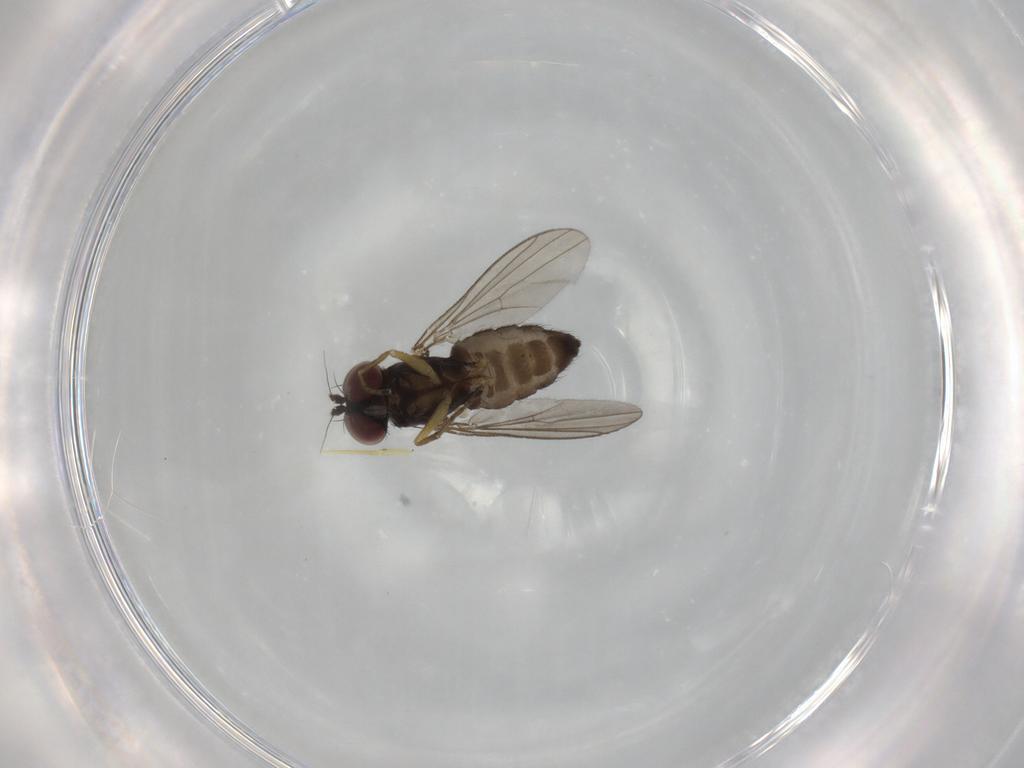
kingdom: Animalia
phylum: Arthropoda
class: Insecta
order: Diptera
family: Dolichopodidae
